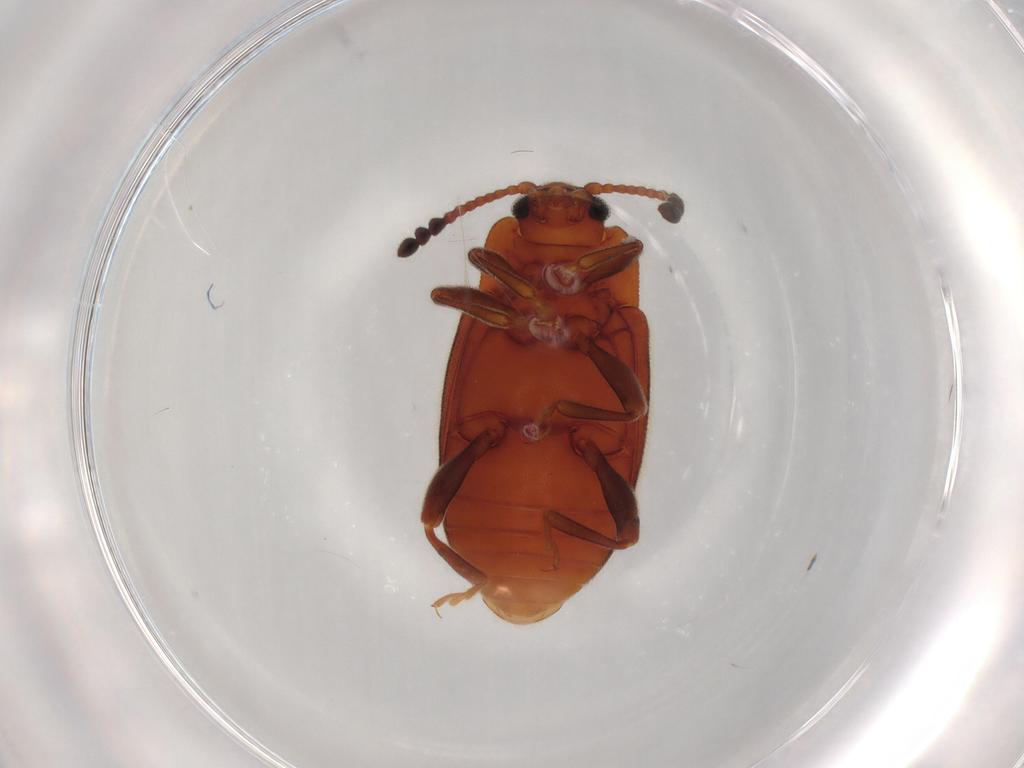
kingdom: Animalia
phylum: Arthropoda
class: Insecta
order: Coleoptera
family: Endomychidae
